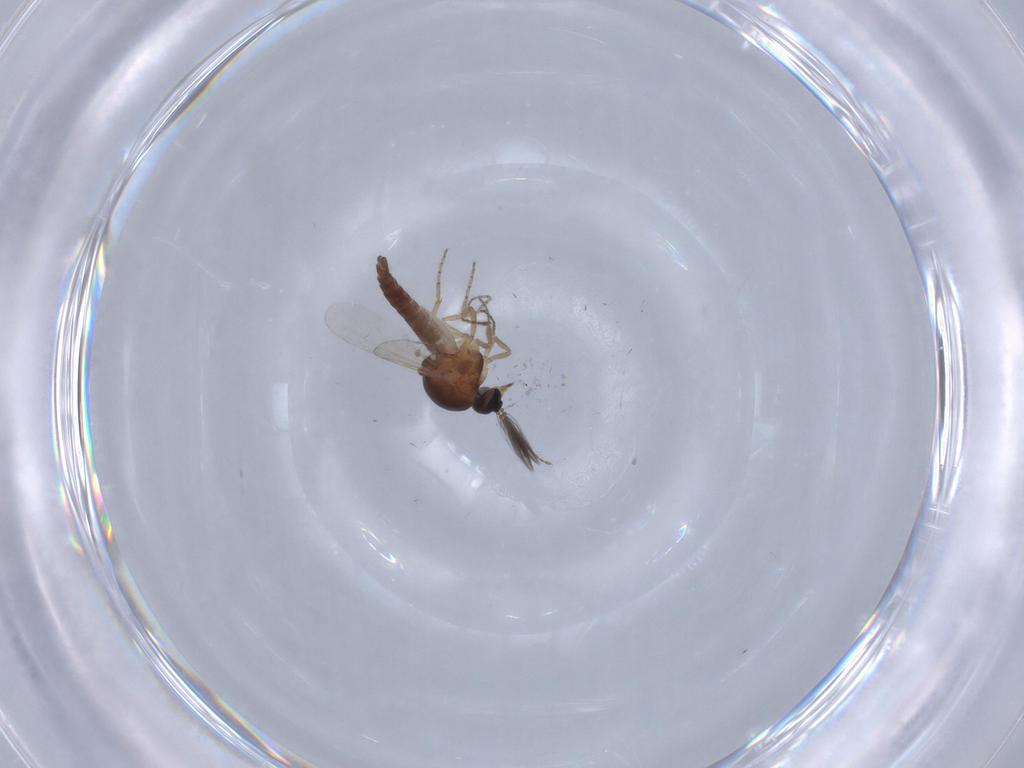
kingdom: Animalia
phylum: Arthropoda
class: Insecta
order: Diptera
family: Ceratopogonidae
